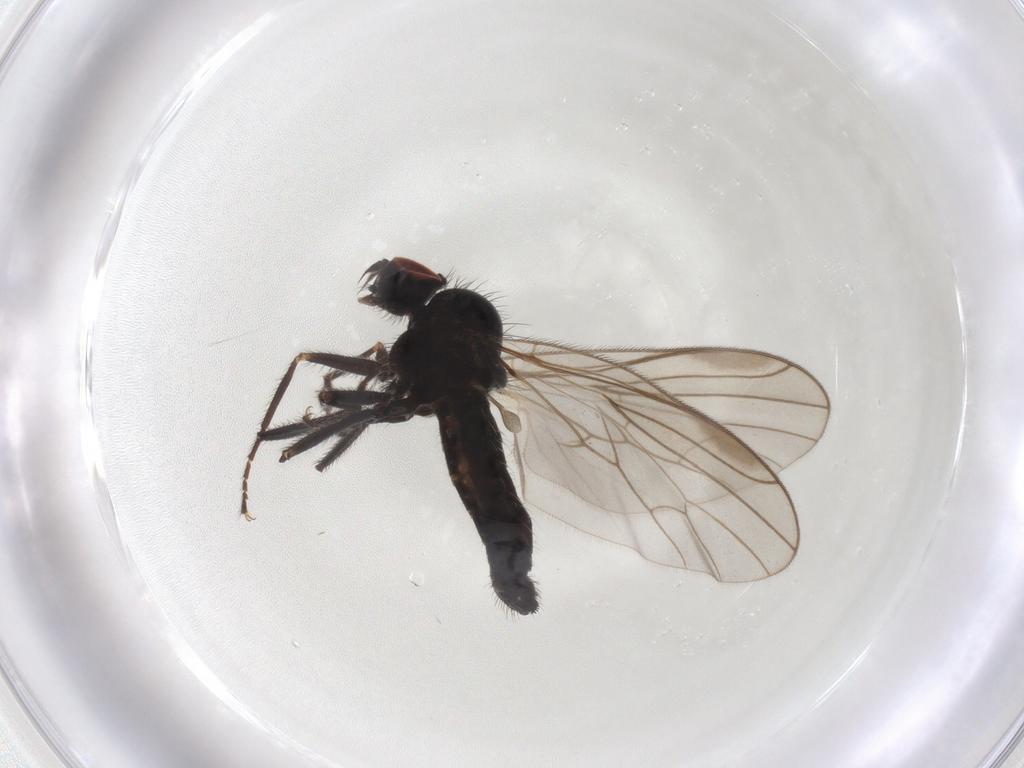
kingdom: Animalia
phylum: Arthropoda
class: Insecta
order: Diptera
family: Hybotidae
